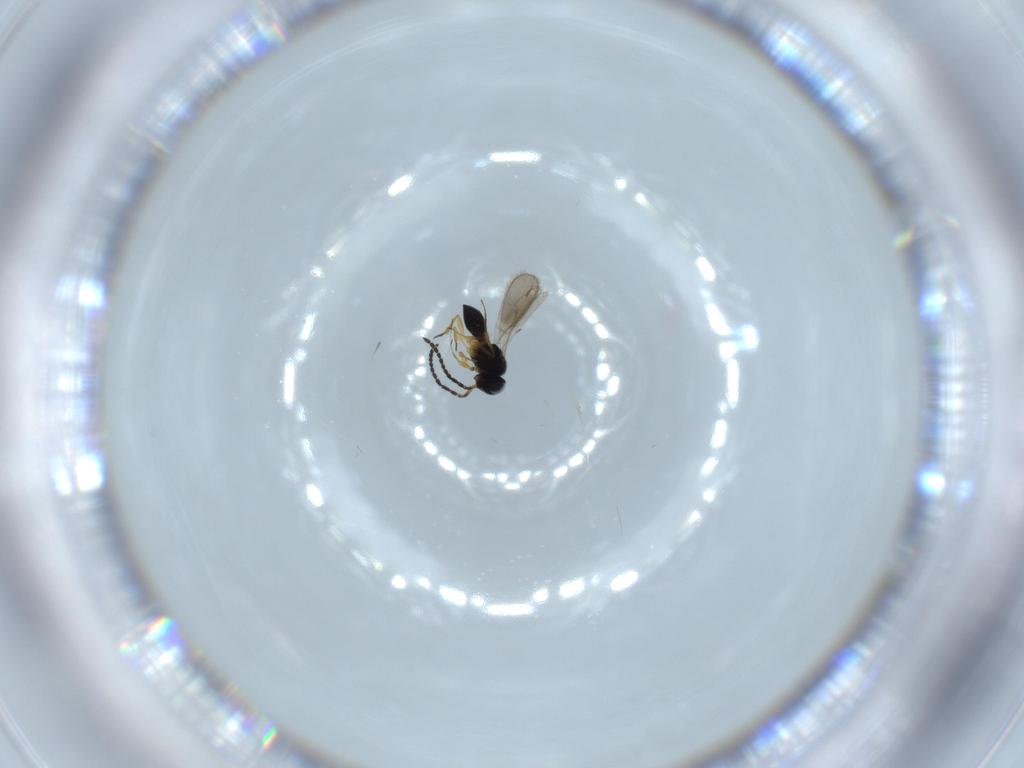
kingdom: Animalia
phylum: Arthropoda
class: Insecta
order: Hymenoptera
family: Scelionidae
